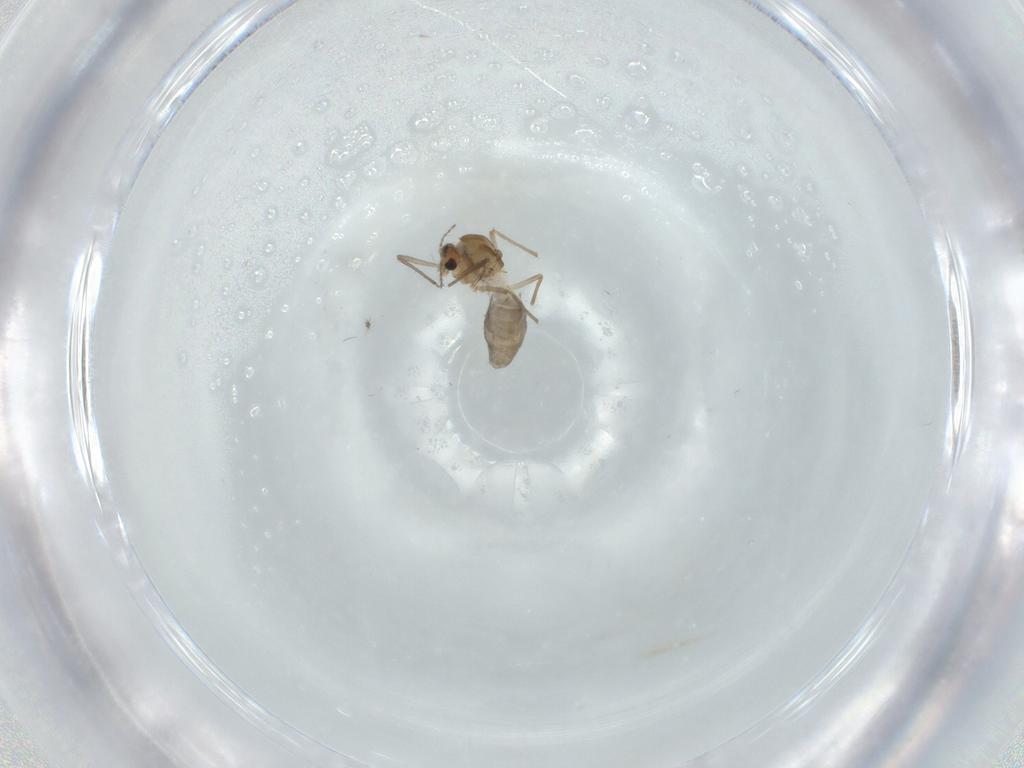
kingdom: Animalia
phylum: Arthropoda
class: Insecta
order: Diptera
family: Chironomidae
